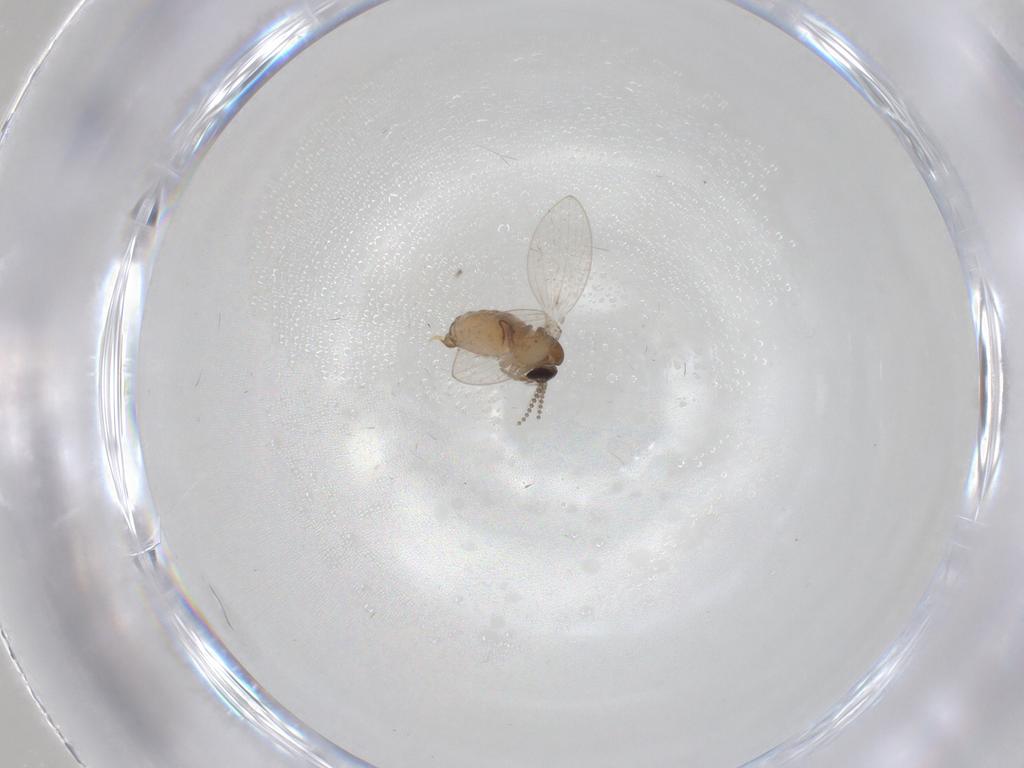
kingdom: Animalia
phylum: Arthropoda
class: Insecta
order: Diptera
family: Psychodidae
